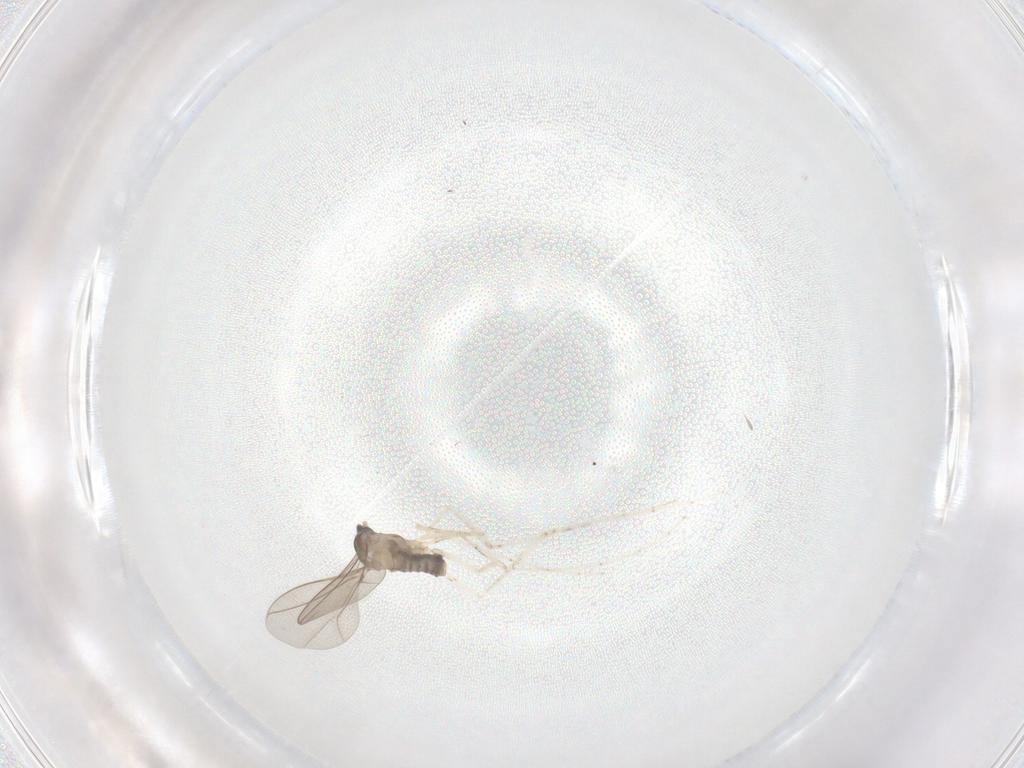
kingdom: Animalia
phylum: Arthropoda
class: Insecta
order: Diptera
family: Cecidomyiidae
